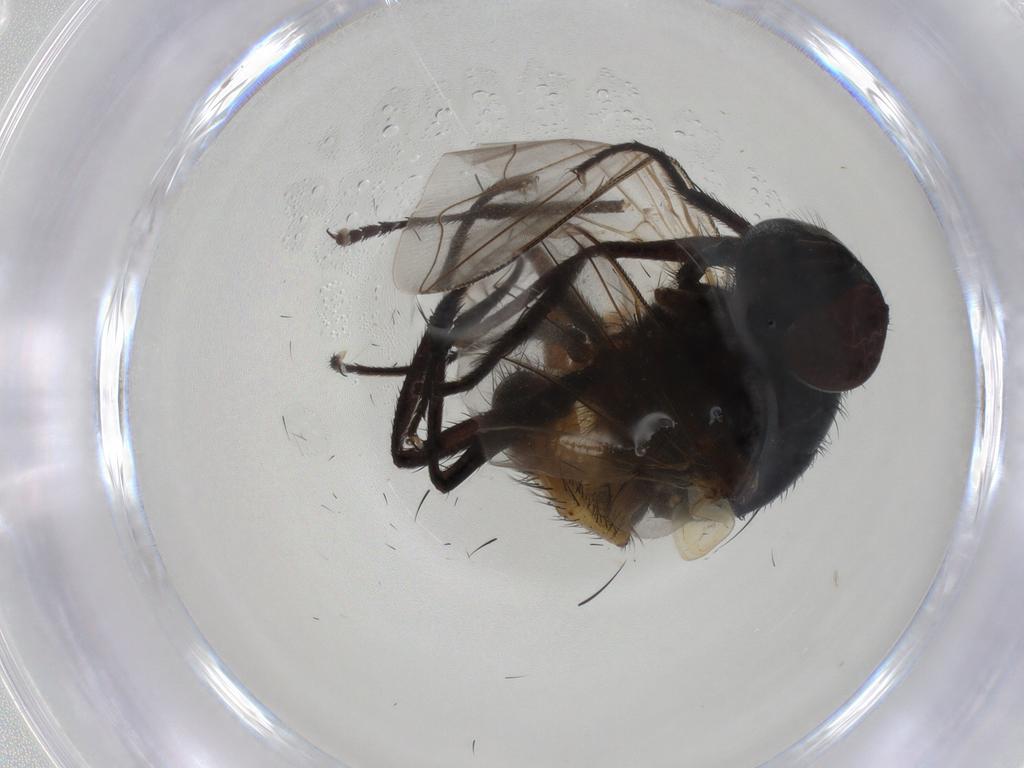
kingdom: Animalia
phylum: Arthropoda
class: Insecta
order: Diptera
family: Muscidae
